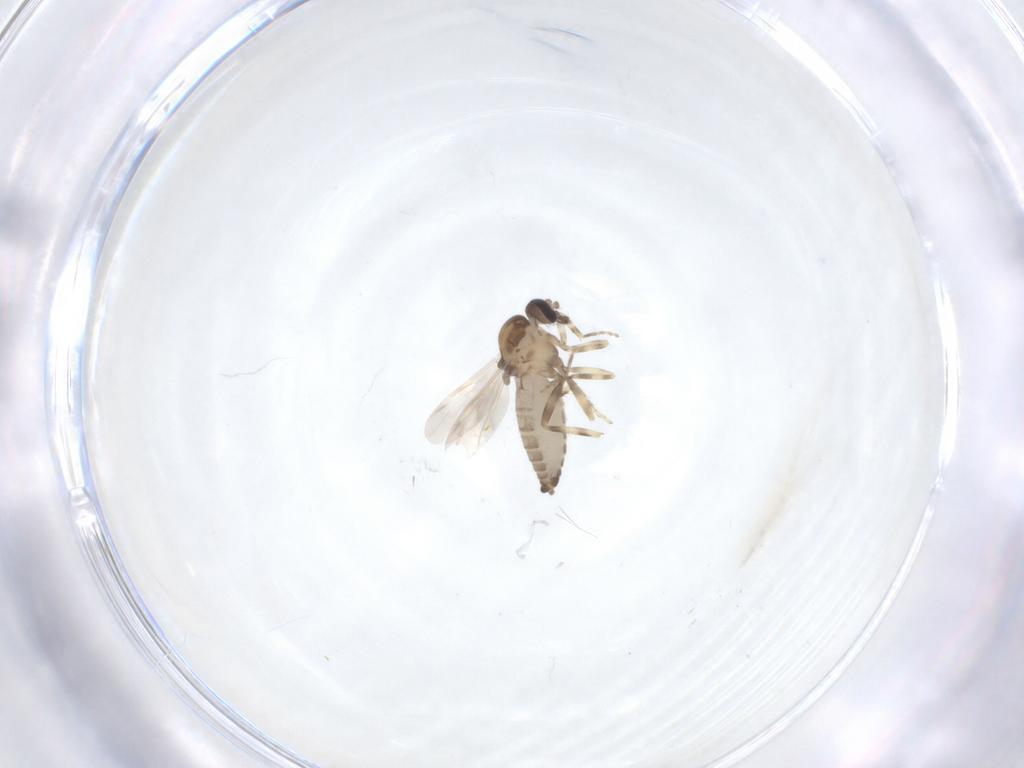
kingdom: Animalia
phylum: Arthropoda
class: Insecta
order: Diptera
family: Ceratopogonidae
